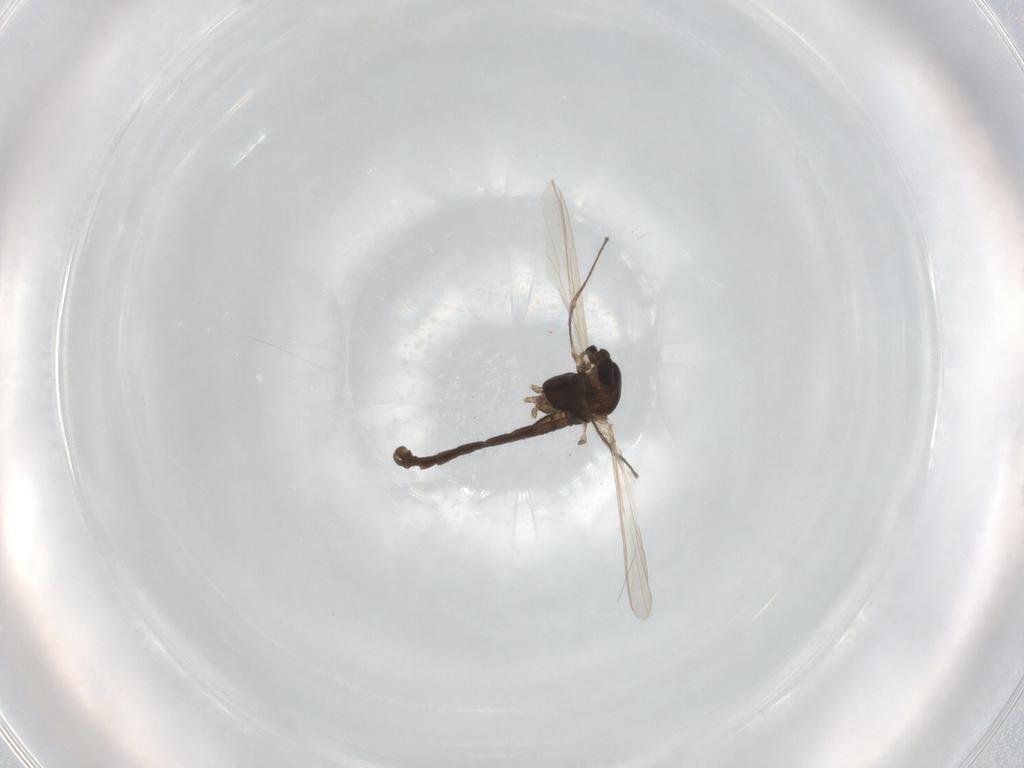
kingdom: Animalia
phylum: Arthropoda
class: Insecta
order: Diptera
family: Chironomidae
